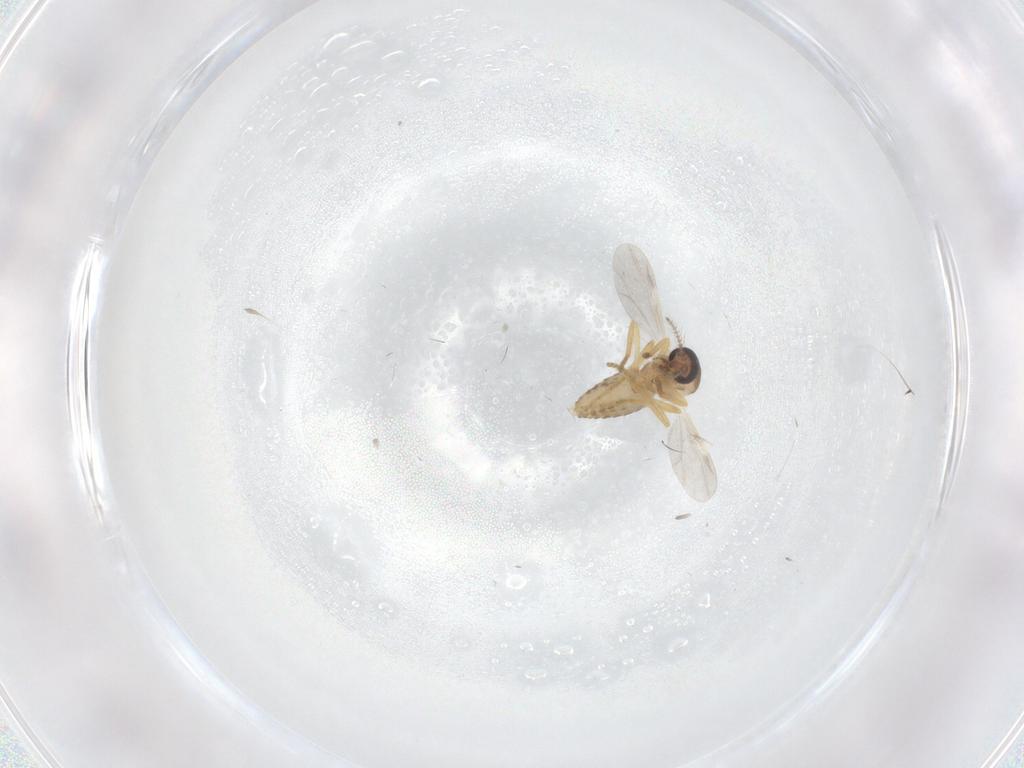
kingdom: Animalia
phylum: Arthropoda
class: Insecta
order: Diptera
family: Ceratopogonidae
